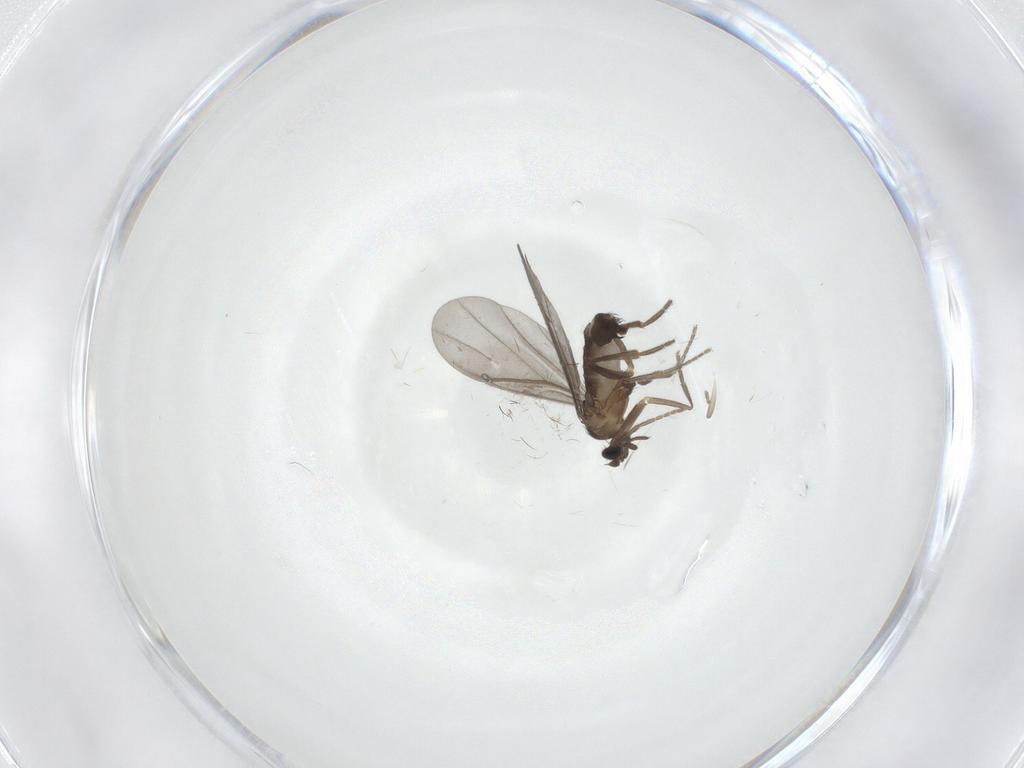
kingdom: Animalia
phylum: Arthropoda
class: Insecta
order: Diptera
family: Phoridae
